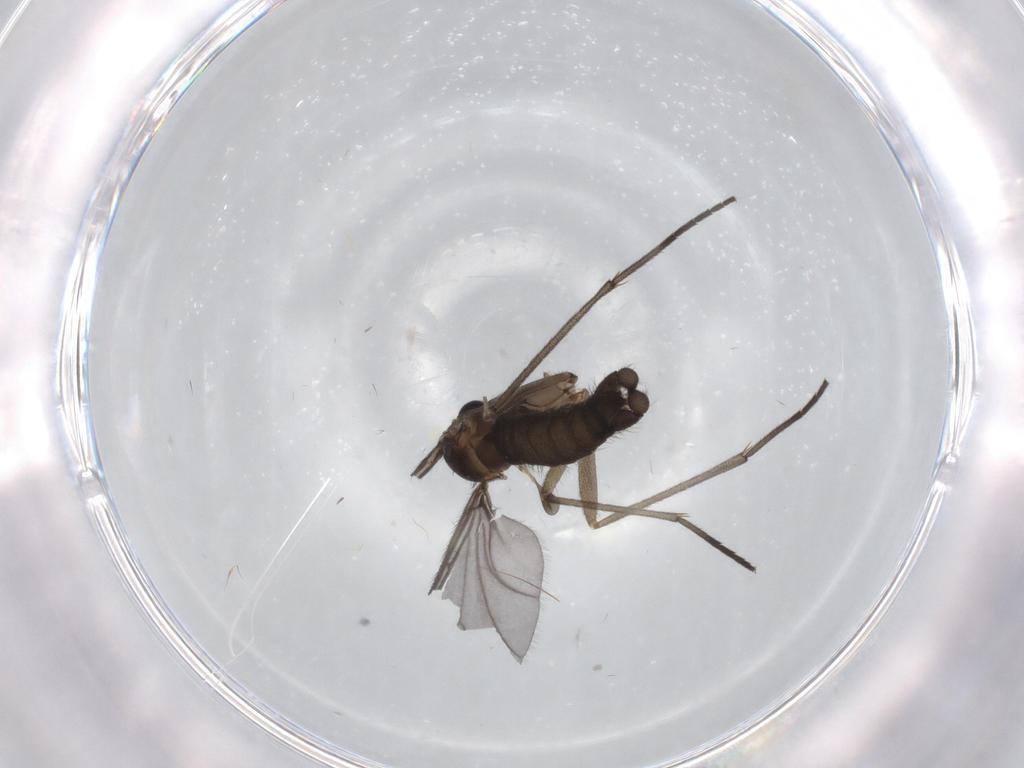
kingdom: Animalia
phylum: Arthropoda
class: Insecta
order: Diptera
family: Sciaridae
